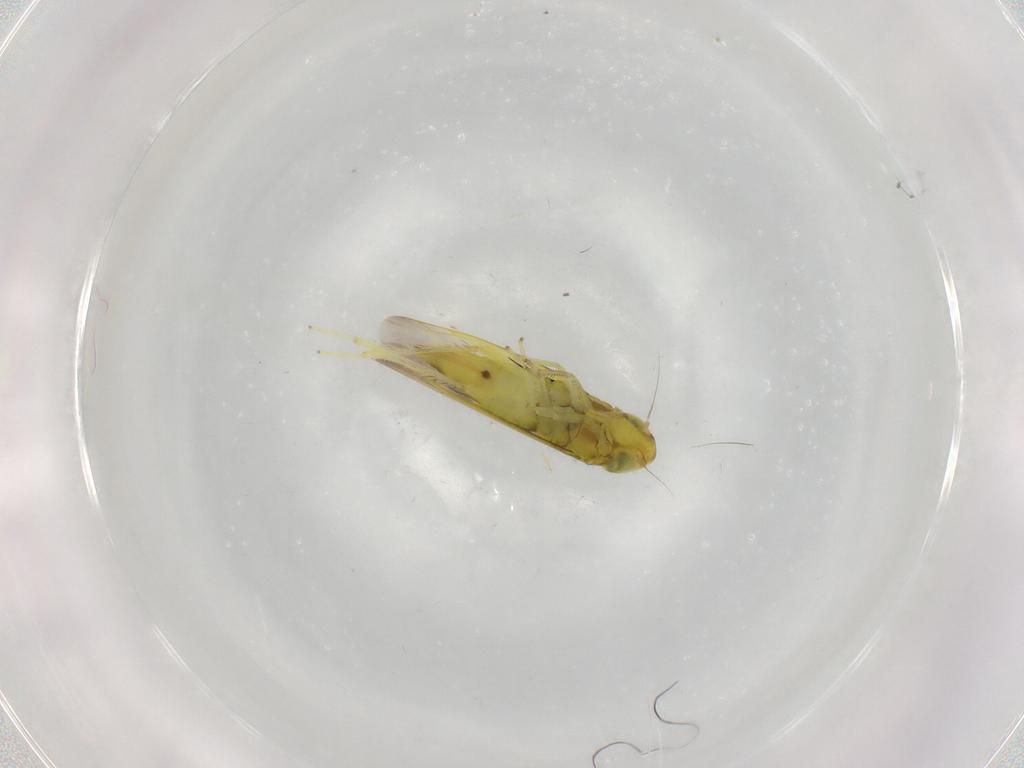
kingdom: Animalia
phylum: Arthropoda
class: Insecta
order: Hemiptera
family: Cicadellidae
